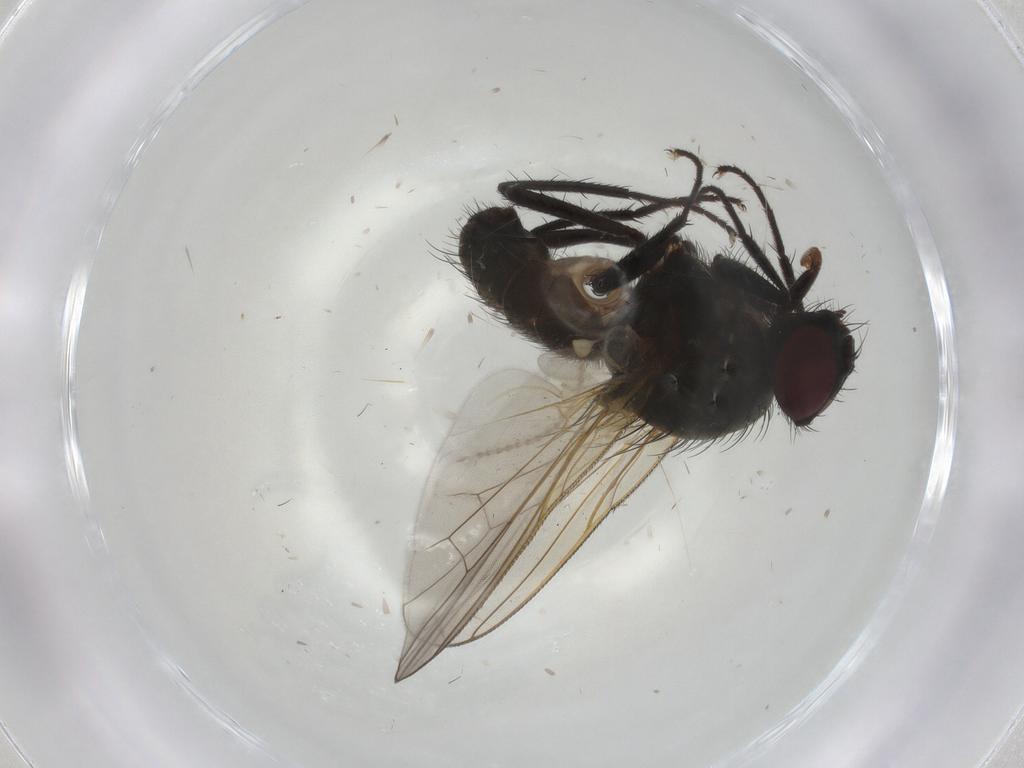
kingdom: Animalia
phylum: Arthropoda
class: Insecta
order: Diptera
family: Anthomyiidae
